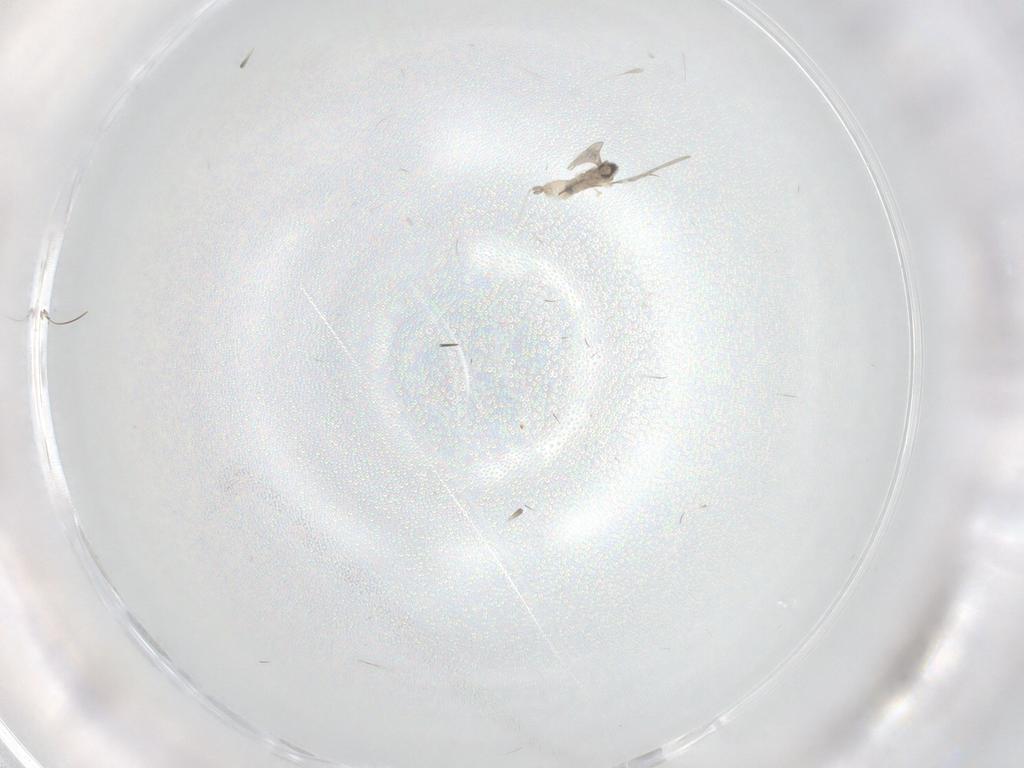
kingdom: Animalia
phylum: Arthropoda
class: Insecta
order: Diptera
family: Cecidomyiidae
